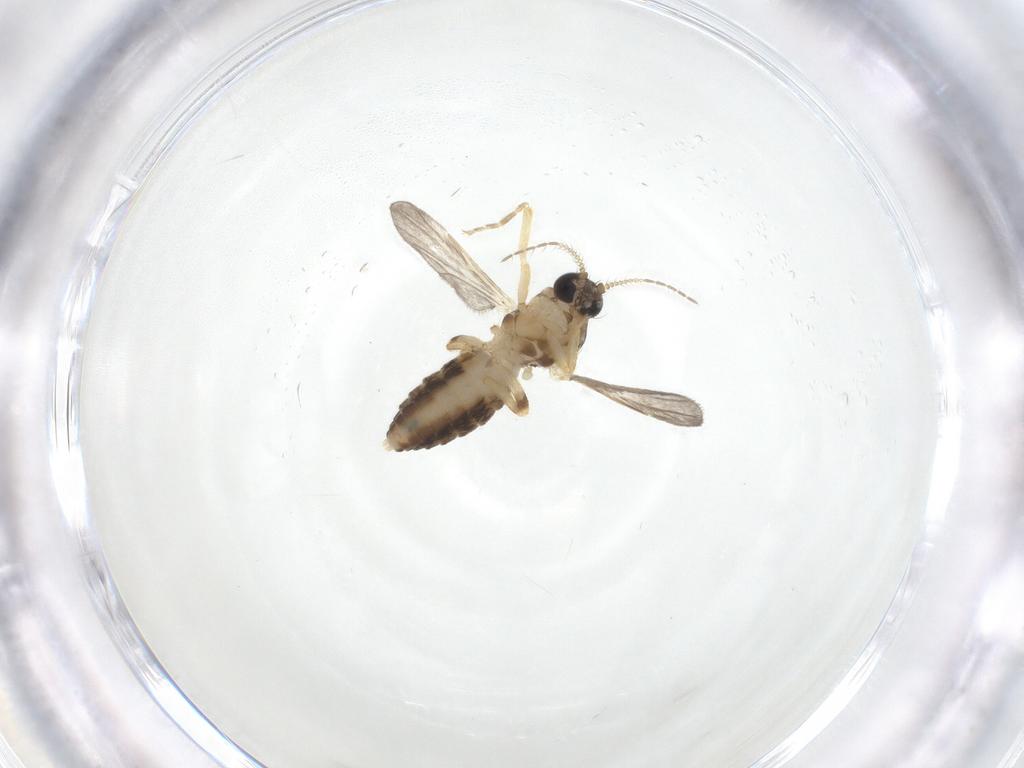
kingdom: Animalia
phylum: Arthropoda
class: Insecta
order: Diptera
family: Ceratopogonidae
